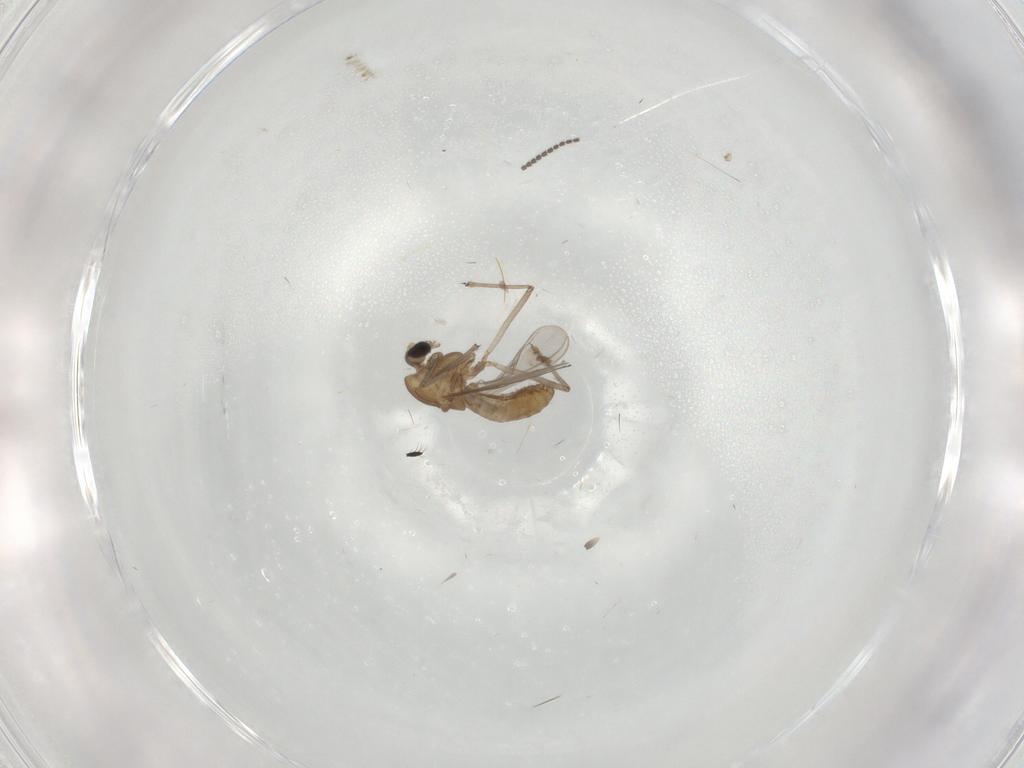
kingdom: Animalia
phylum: Arthropoda
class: Insecta
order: Diptera
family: Chironomidae
